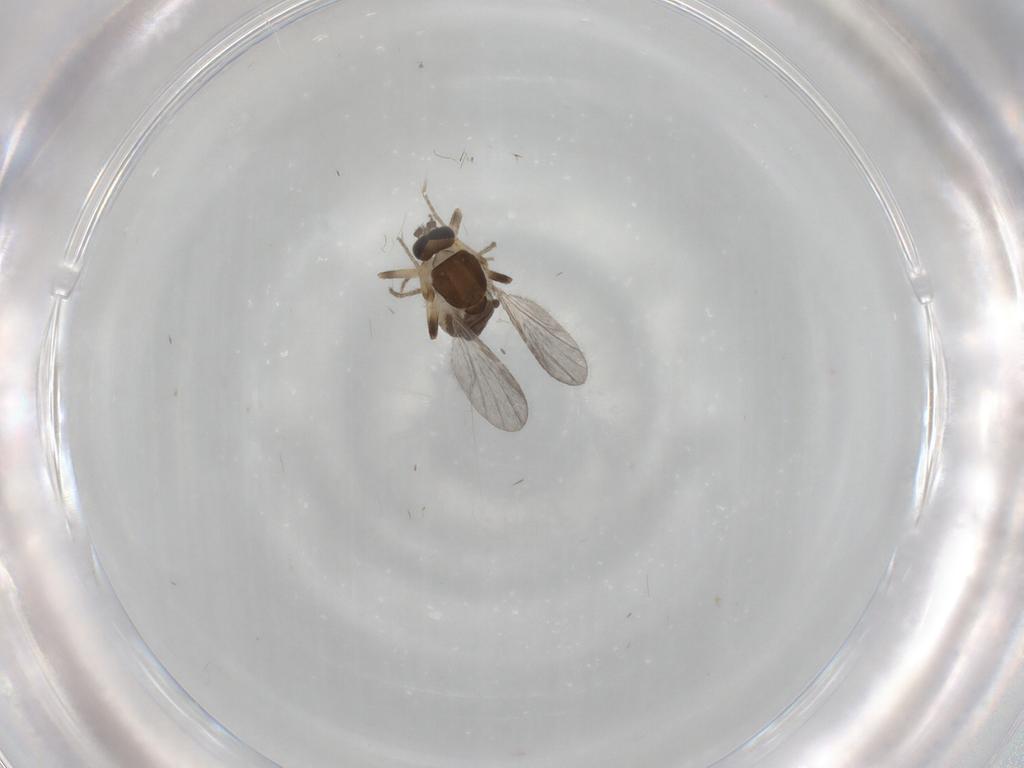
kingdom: Animalia
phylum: Arthropoda
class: Insecta
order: Diptera
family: Ceratopogonidae
